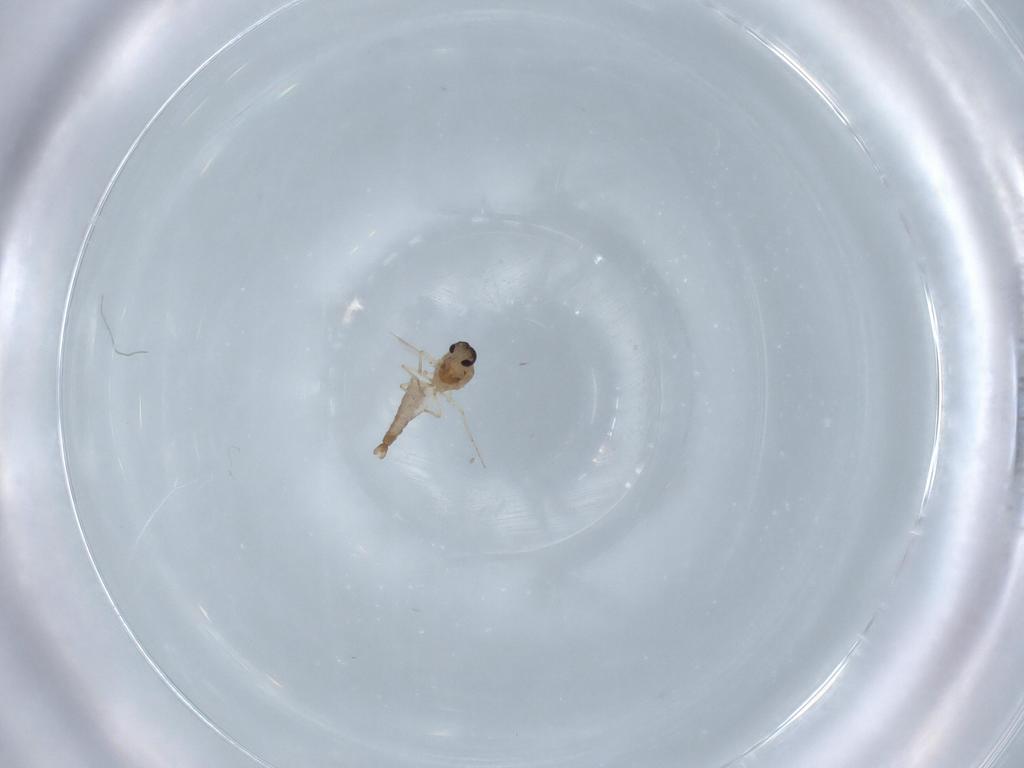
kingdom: Animalia
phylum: Arthropoda
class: Insecta
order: Diptera
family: Ceratopogonidae
